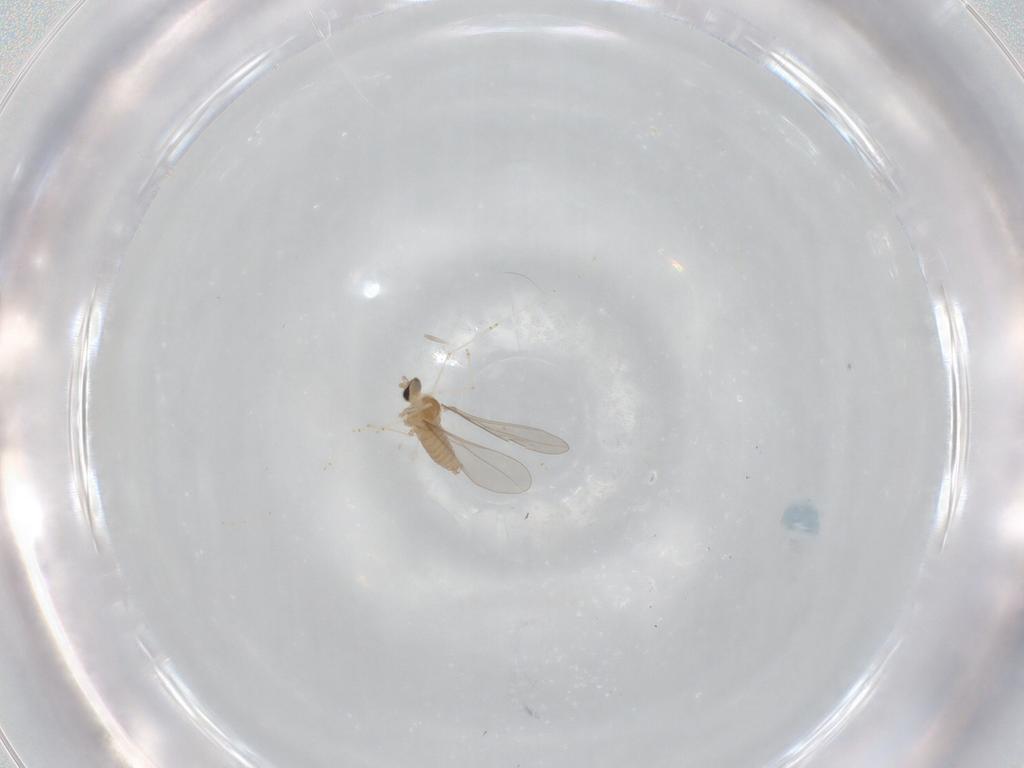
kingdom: Animalia
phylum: Arthropoda
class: Insecta
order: Diptera
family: Cecidomyiidae
